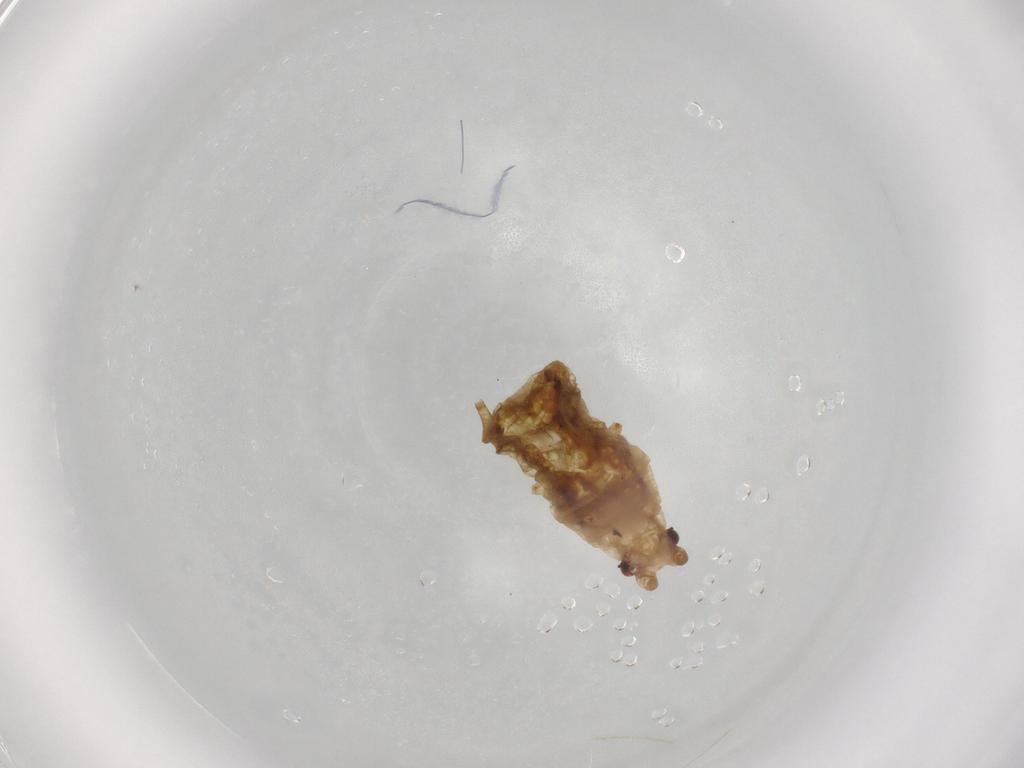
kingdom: Animalia
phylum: Arthropoda
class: Insecta
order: Hemiptera
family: Aphididae
